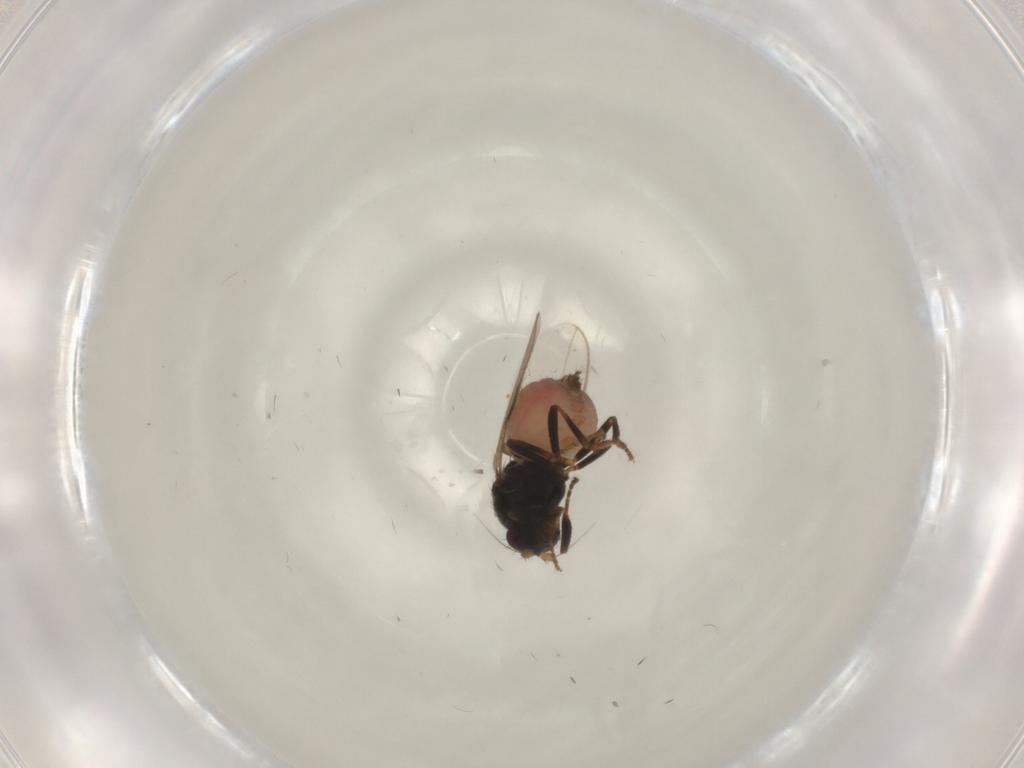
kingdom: Animalia
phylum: Arthropoda
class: Insecta
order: Diptera
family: Sphaeroceridae
